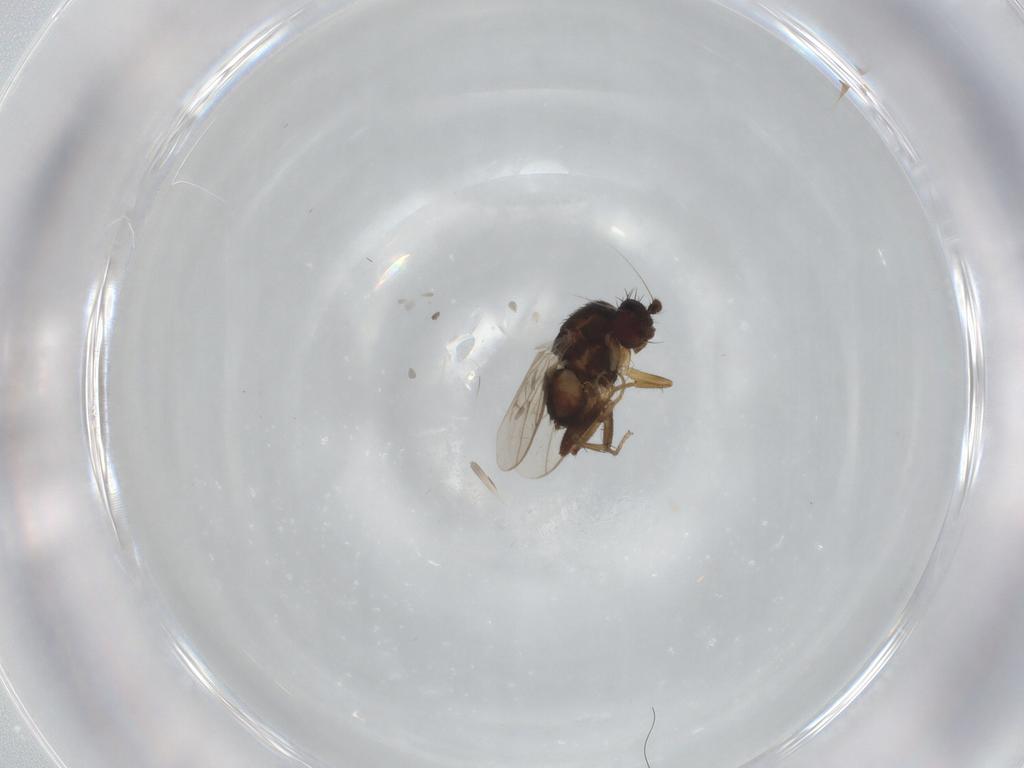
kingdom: Animalia
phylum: Arthropoda
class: Insecta
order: Diptera
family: Sphaeroceridae
